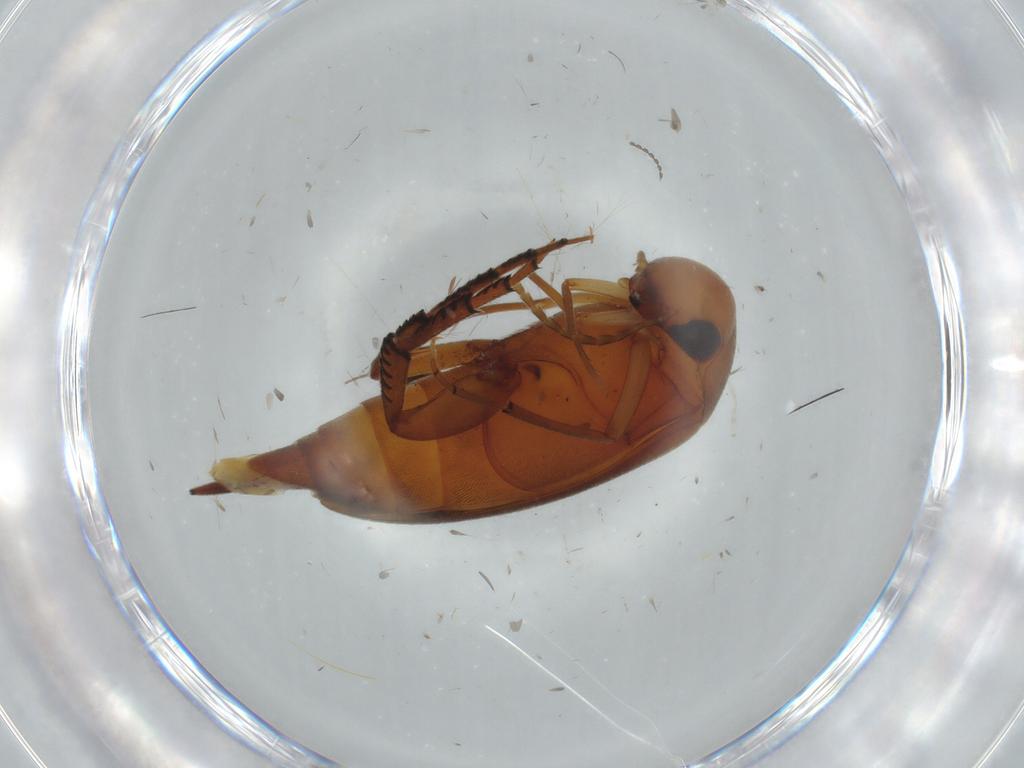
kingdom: Animalia
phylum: Arthropoda
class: Insecta
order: Coleoptera
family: Mordellidae
